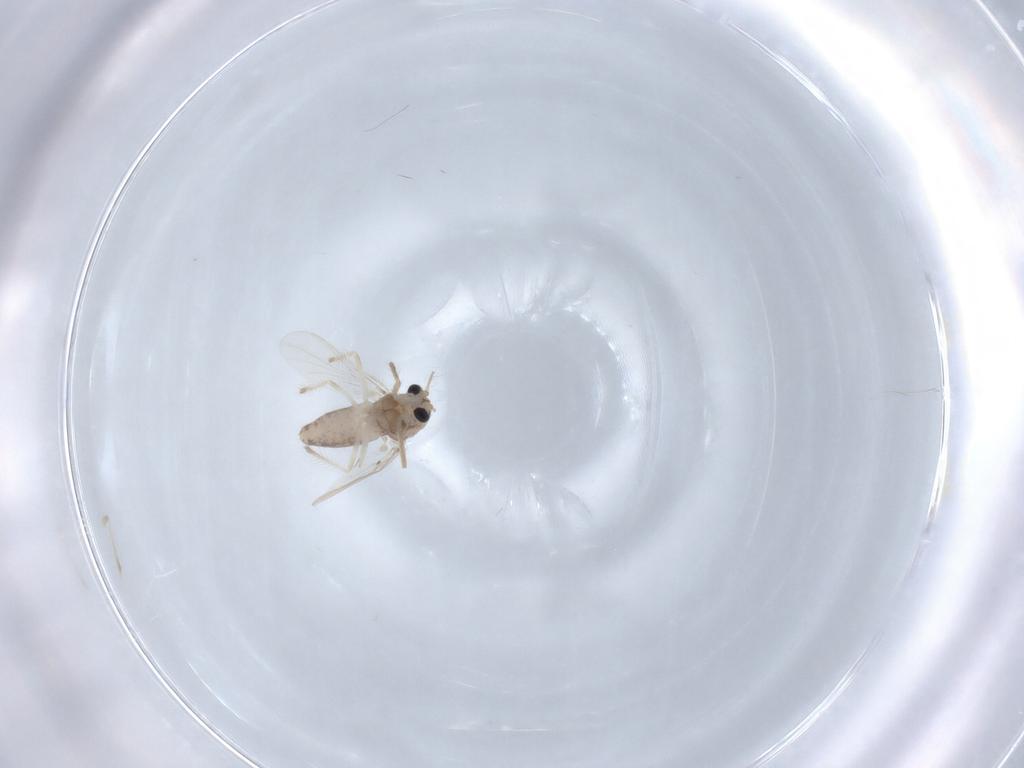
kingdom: Animalia
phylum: Arthropoda
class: Insecta
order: Diptera
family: Chironomidae
